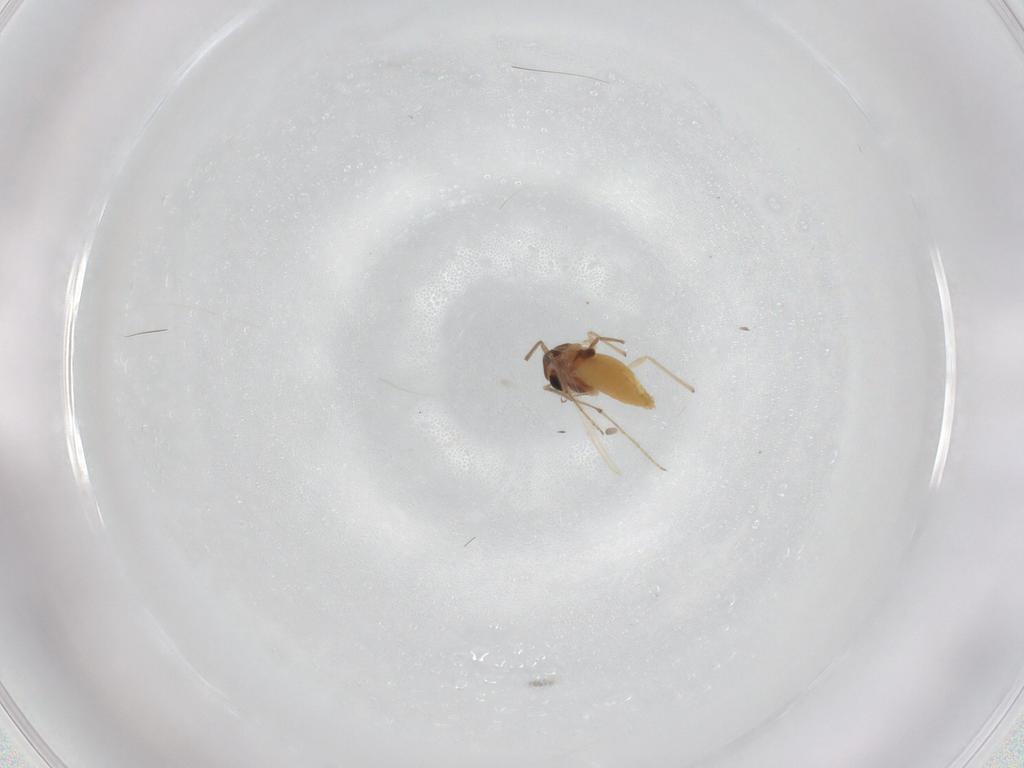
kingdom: Animalia
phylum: Arthropoda
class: Insecta
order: Diptera
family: Chironomidae
